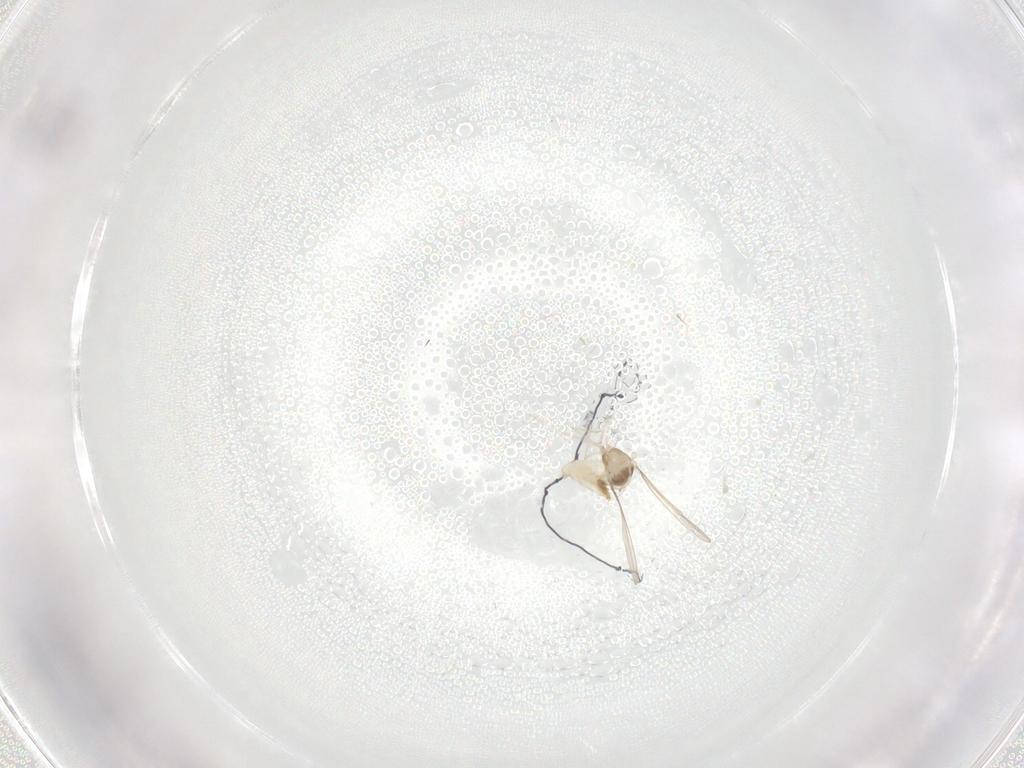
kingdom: Animalia
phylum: Arthropoda
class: Insecta
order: Diptera
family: Cecidomyiidae
